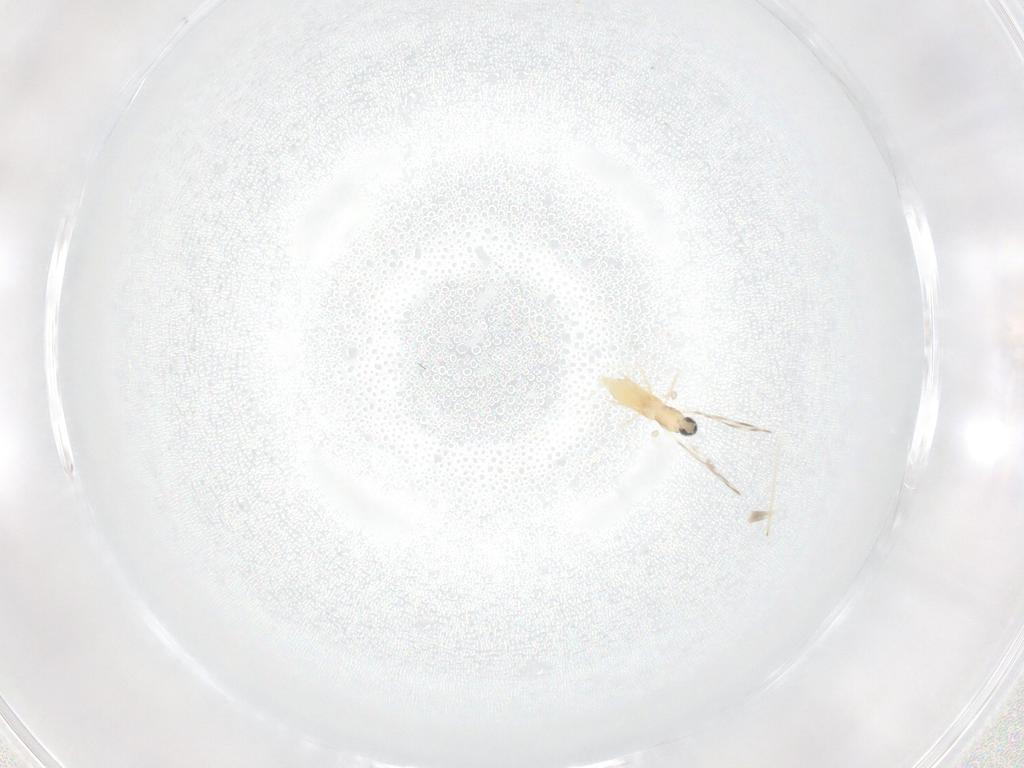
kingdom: Animalia
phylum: Arthropoda
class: Insecta
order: Diptera
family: Cecidomyiidae
